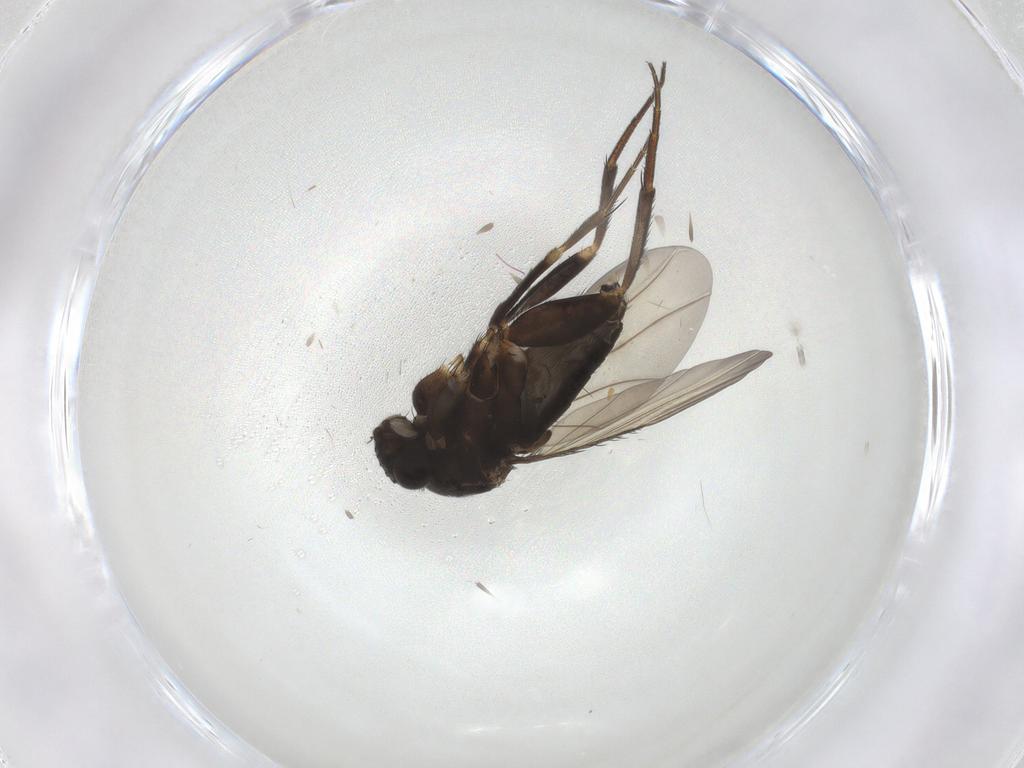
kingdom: Animalia
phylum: Arthropoda
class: Insecta
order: Diptera
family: Phoridae
